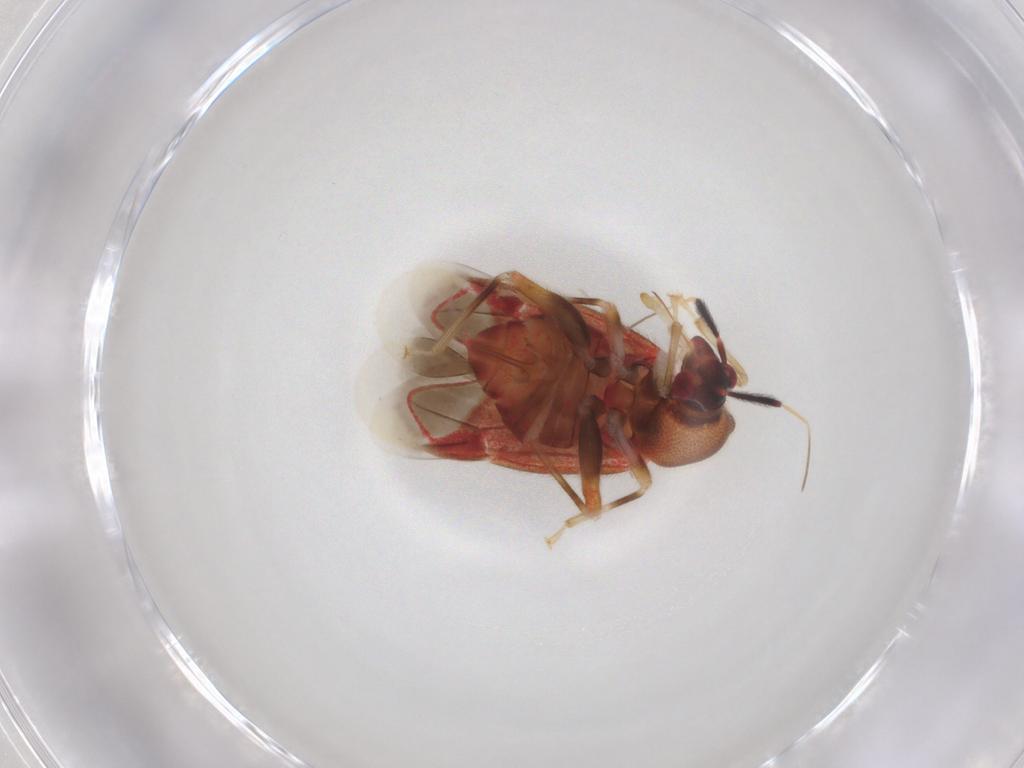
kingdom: Animalia
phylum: Arthropoda
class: Insecta
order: Hemiptera
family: Miridae
